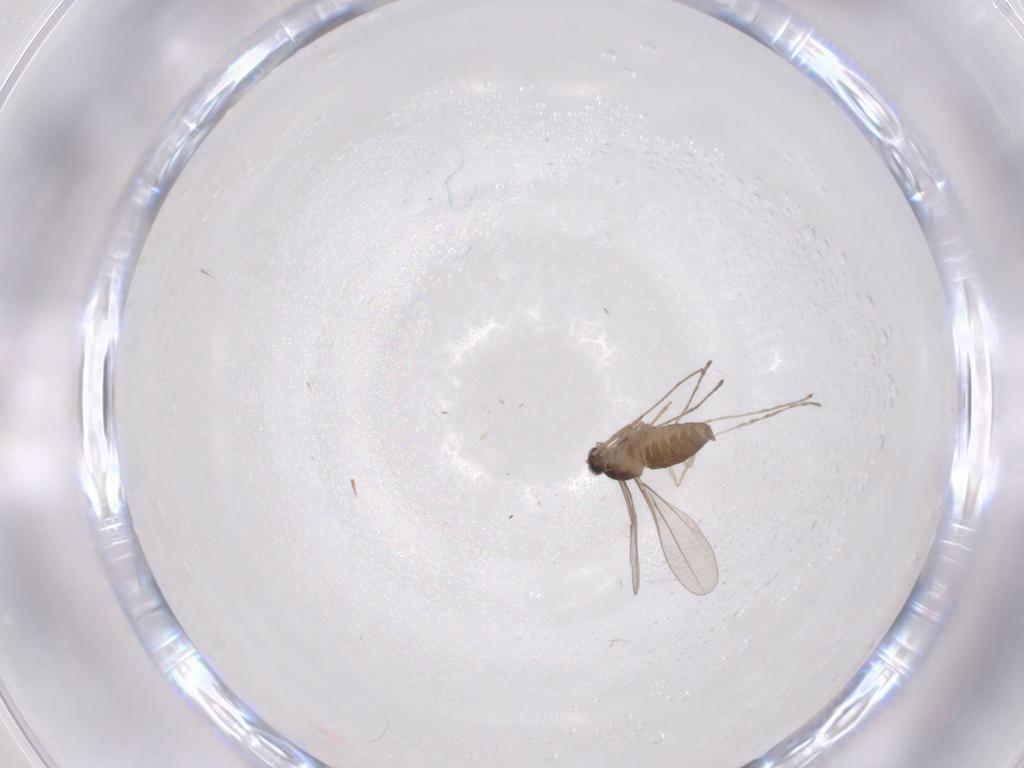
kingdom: Animalia
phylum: Arthropoda
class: Insecta
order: Diptera
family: Cecidomyiidae
